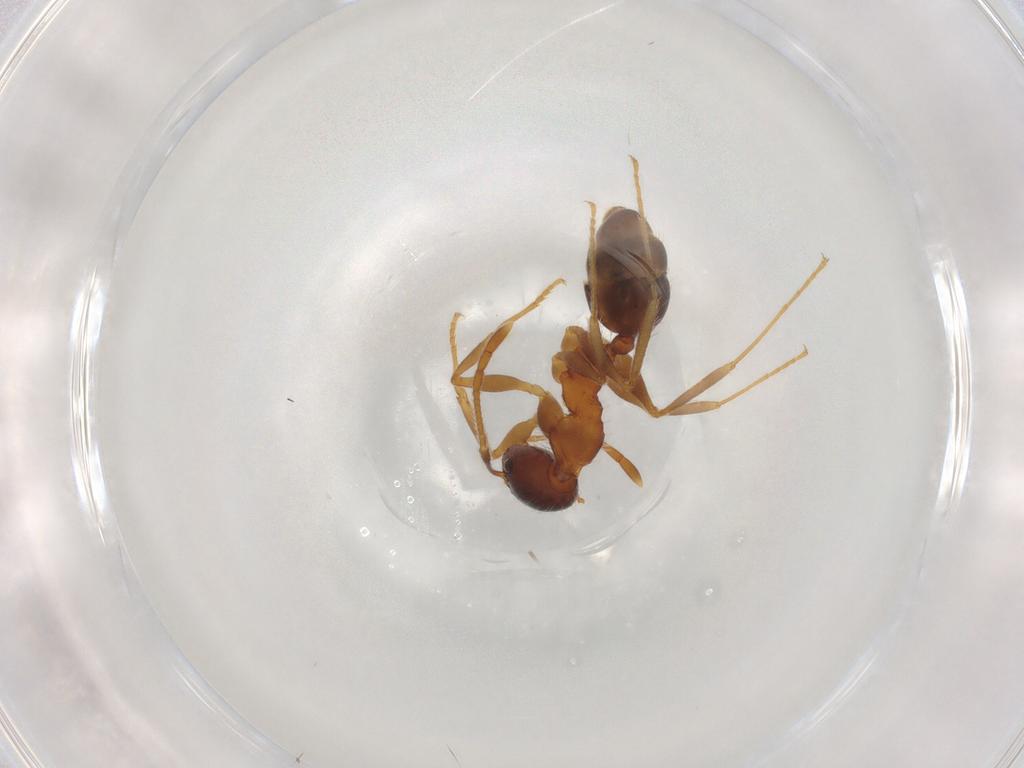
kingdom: Animalia
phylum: Arthropoda
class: Insecta
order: Hymenoptera
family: Formicidae
